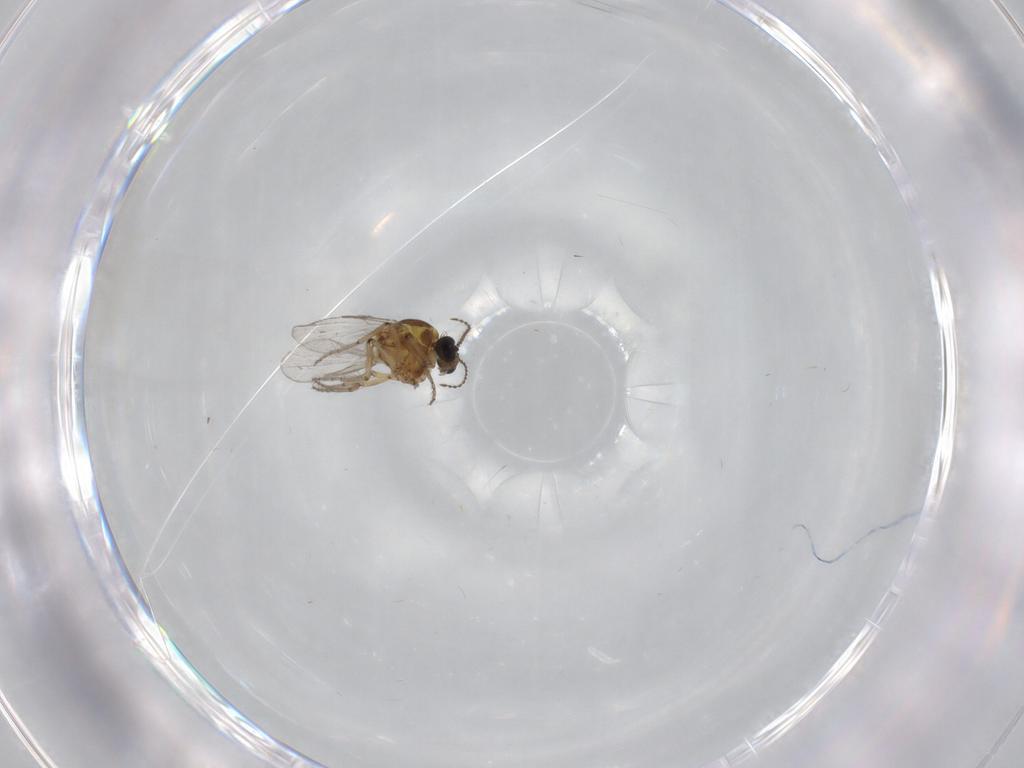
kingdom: Animalia
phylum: Arthropoda
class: Insecta
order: Diptera
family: Ceratopogonidae
